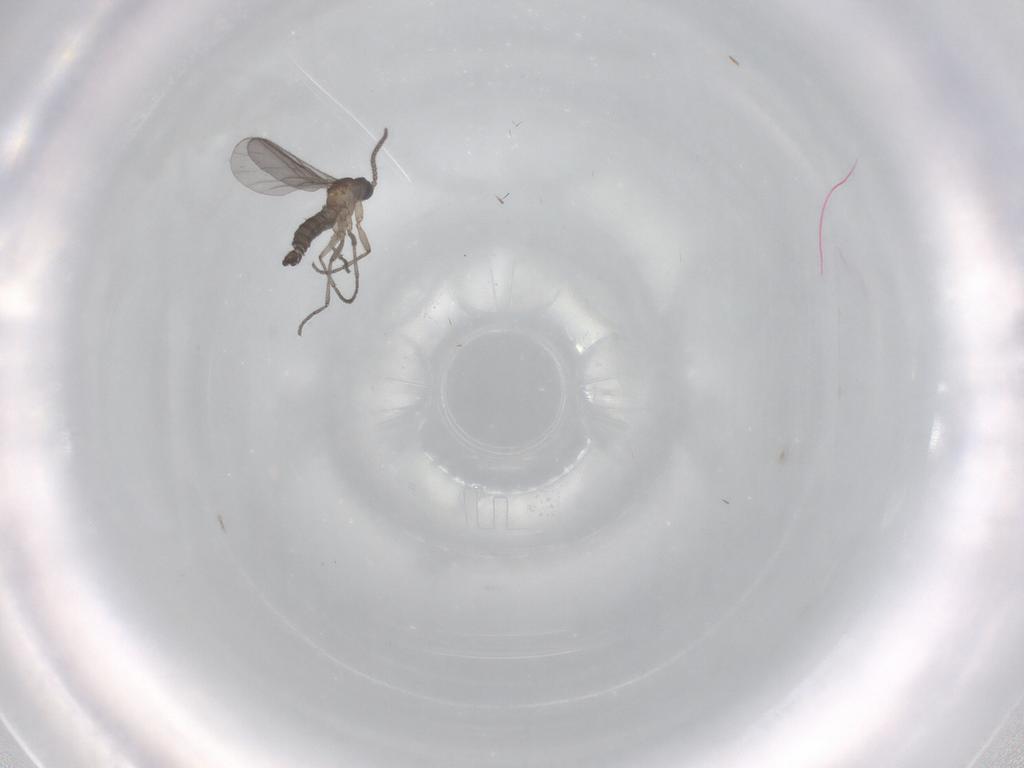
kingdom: Animalia
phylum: Arthropoda
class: Insecta
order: Diptera
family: Sciaridae
